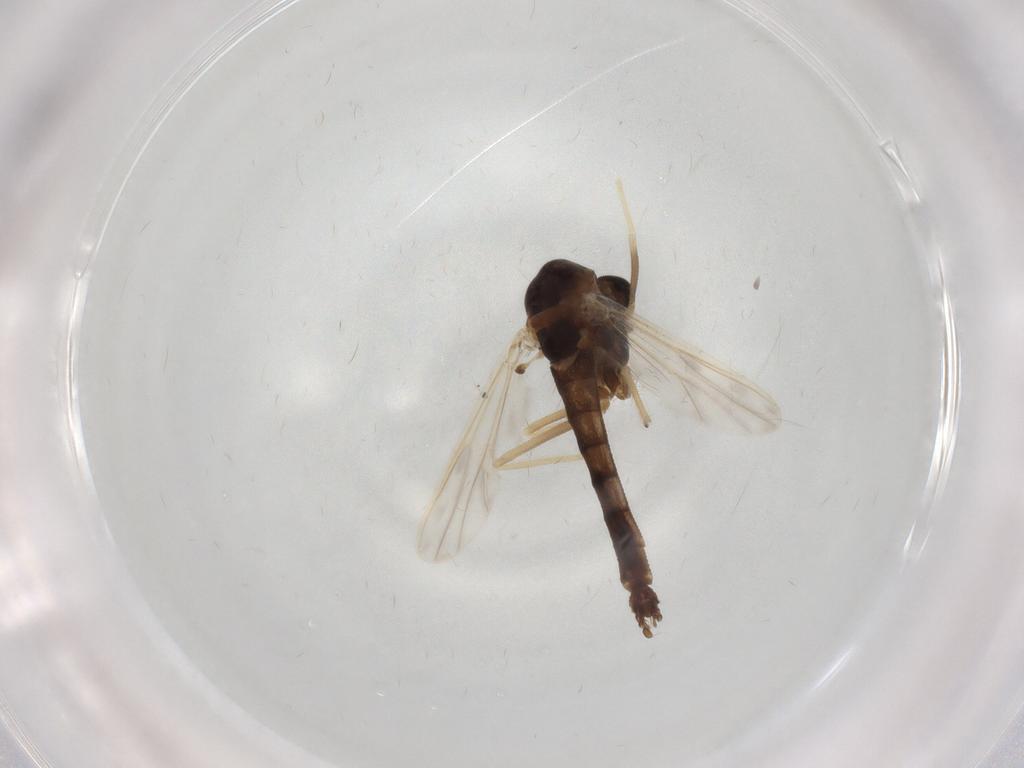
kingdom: Animalia
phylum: Arthropoda
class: Insecta
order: Diptera
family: Chironomidae
